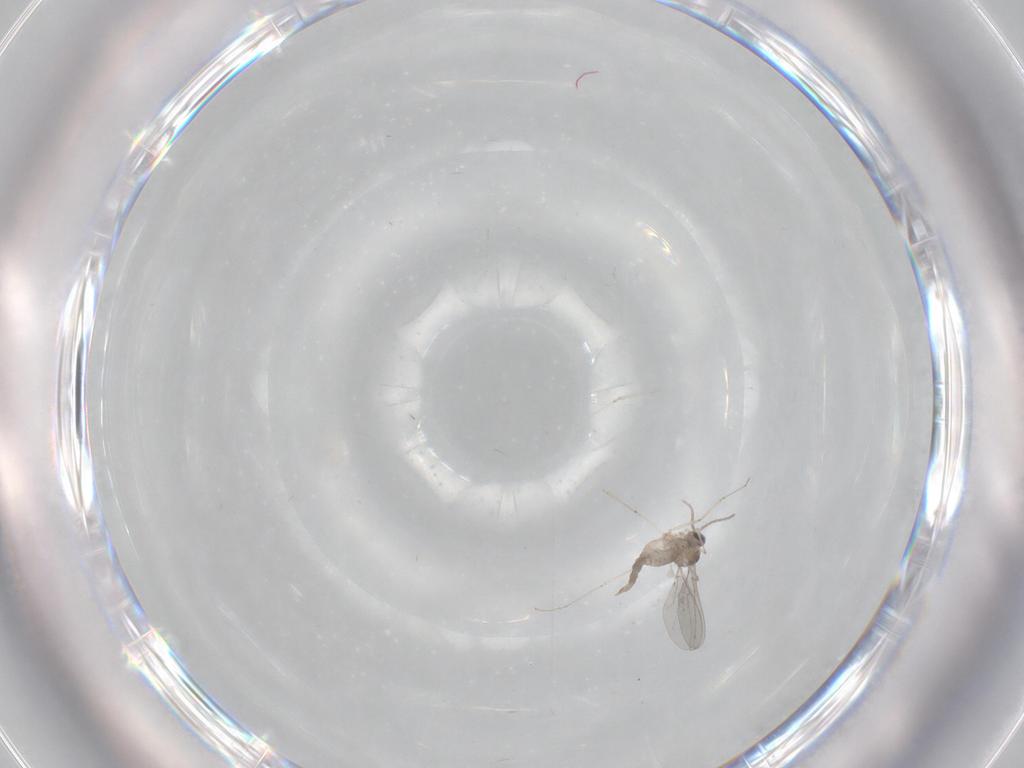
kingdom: Animalia
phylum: Arthropoda
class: Insecta
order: Diptera
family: Cecidomyiidae
